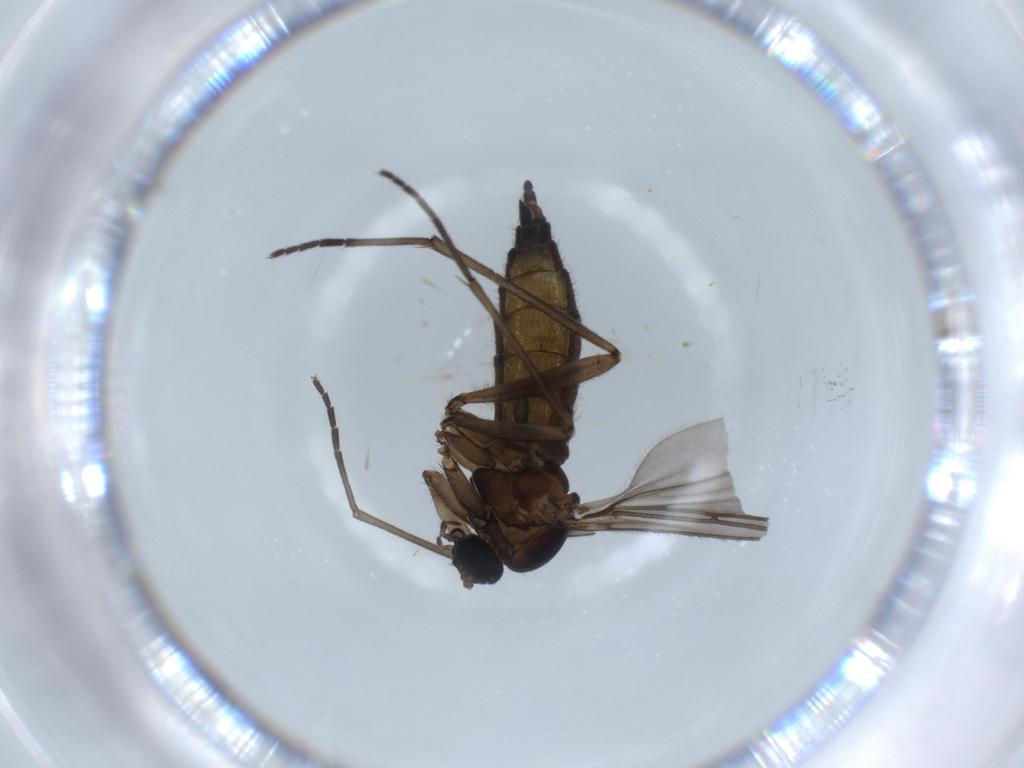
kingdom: Animalia
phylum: Arthropoda
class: Insecta
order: Diptera
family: Sciaridae
